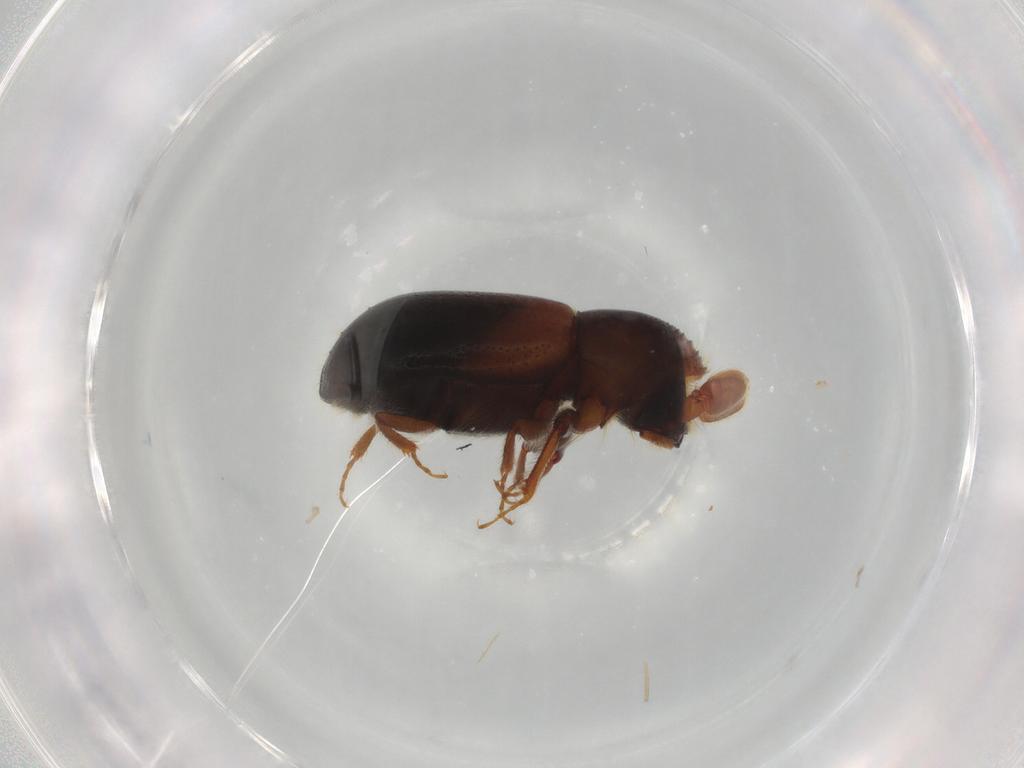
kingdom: Animalia
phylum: Arthropoda
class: Insecta
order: Coleoptera
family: Curculionidae
